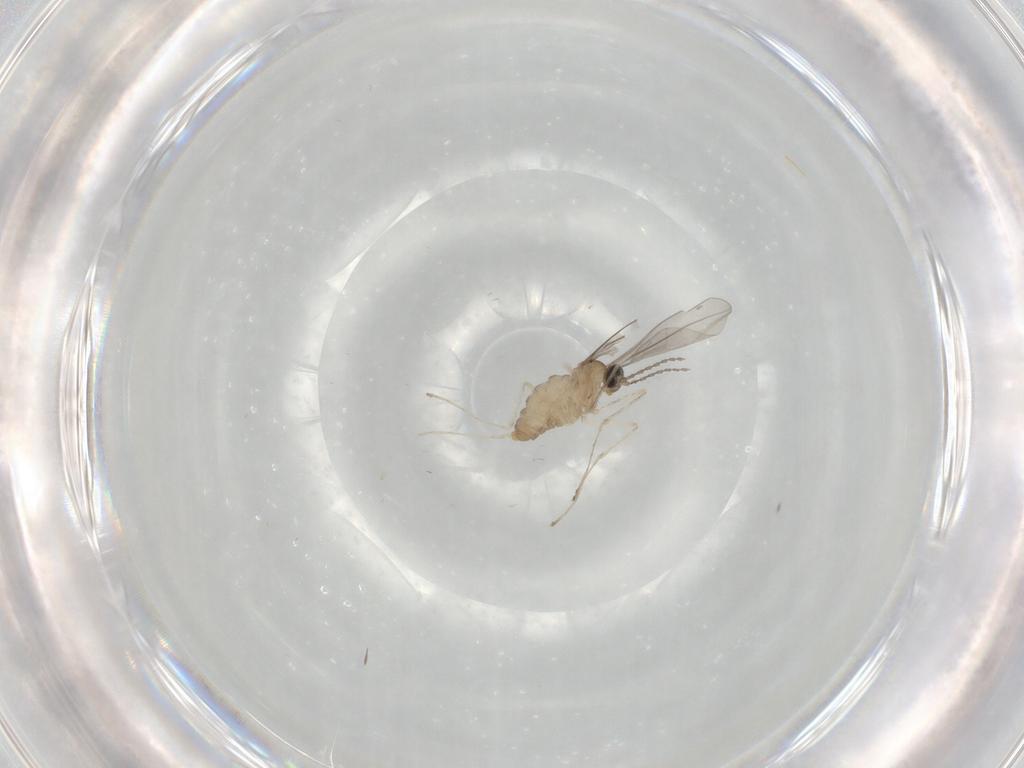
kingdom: Animalia
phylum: Arthropoda
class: Insecta
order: Diptera
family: Cecidomyiidae
